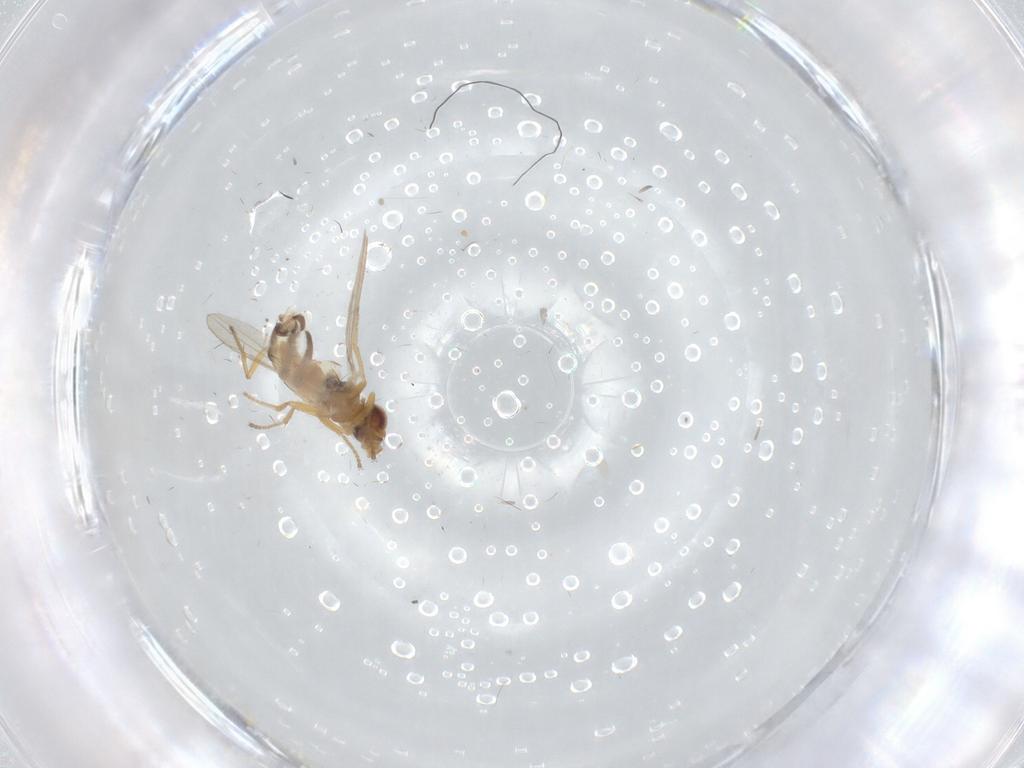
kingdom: Animalia
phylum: Arthropoda
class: Insecta
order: Diptera
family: Periscelididae
